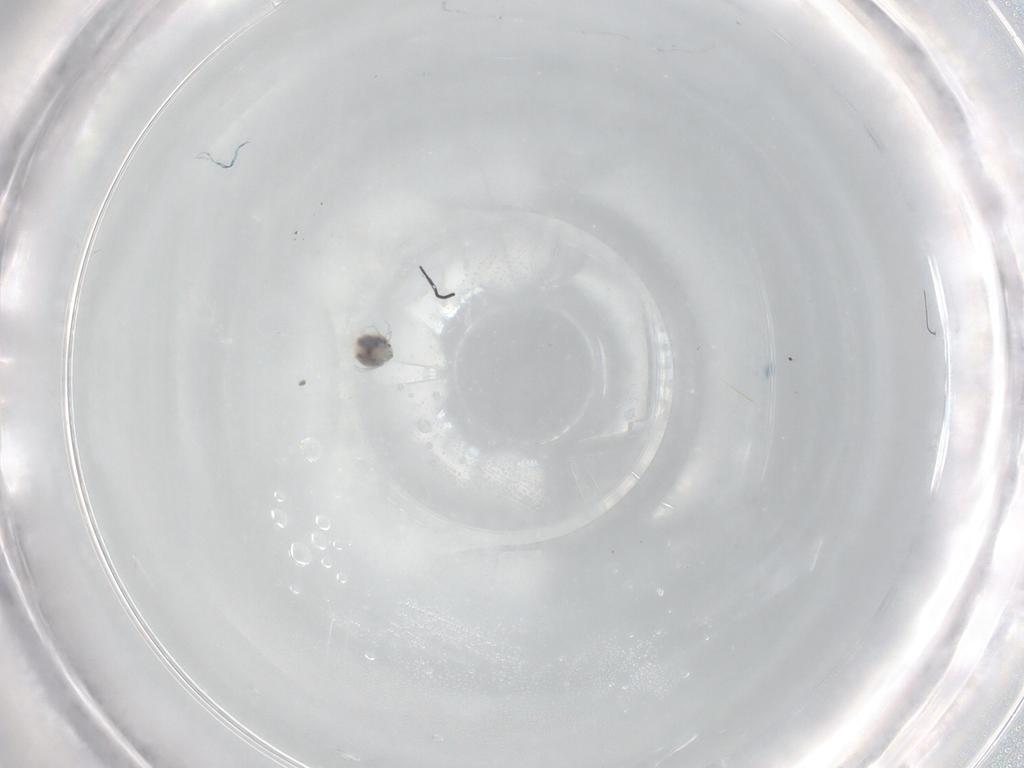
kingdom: Animalia
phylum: Arthropoda
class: Arachnida
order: Trombidiformes
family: Unionicolidae
